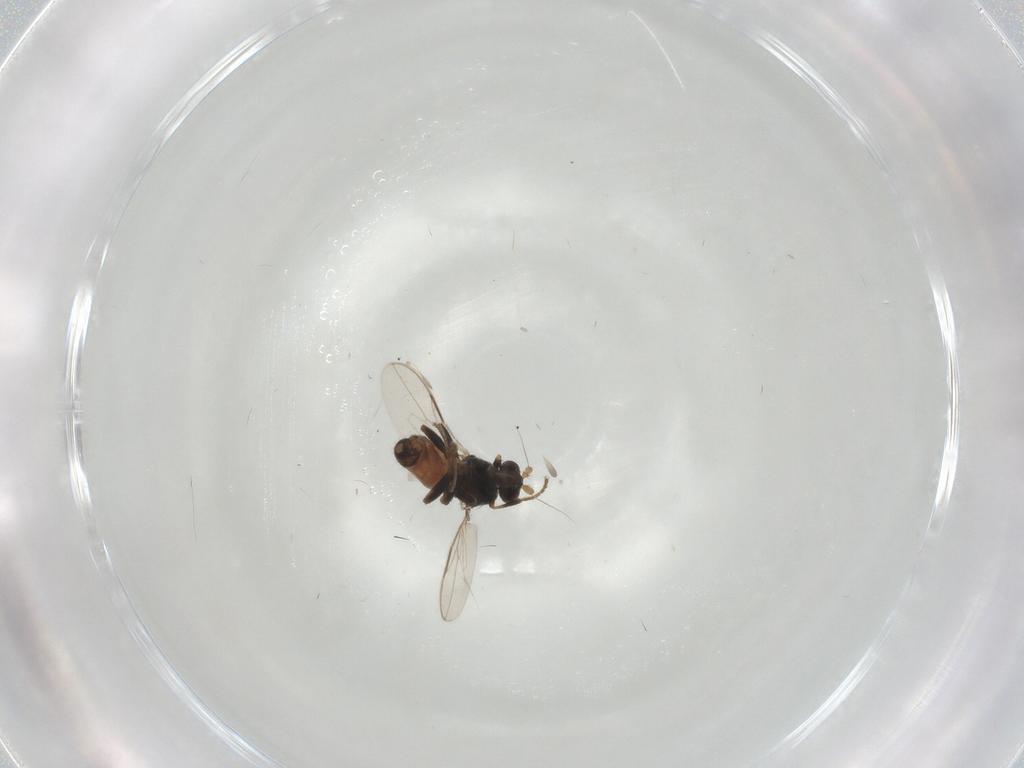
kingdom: Animalia
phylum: Arthropoda
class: Insecta
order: Diptera
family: Sphaeroceridae
